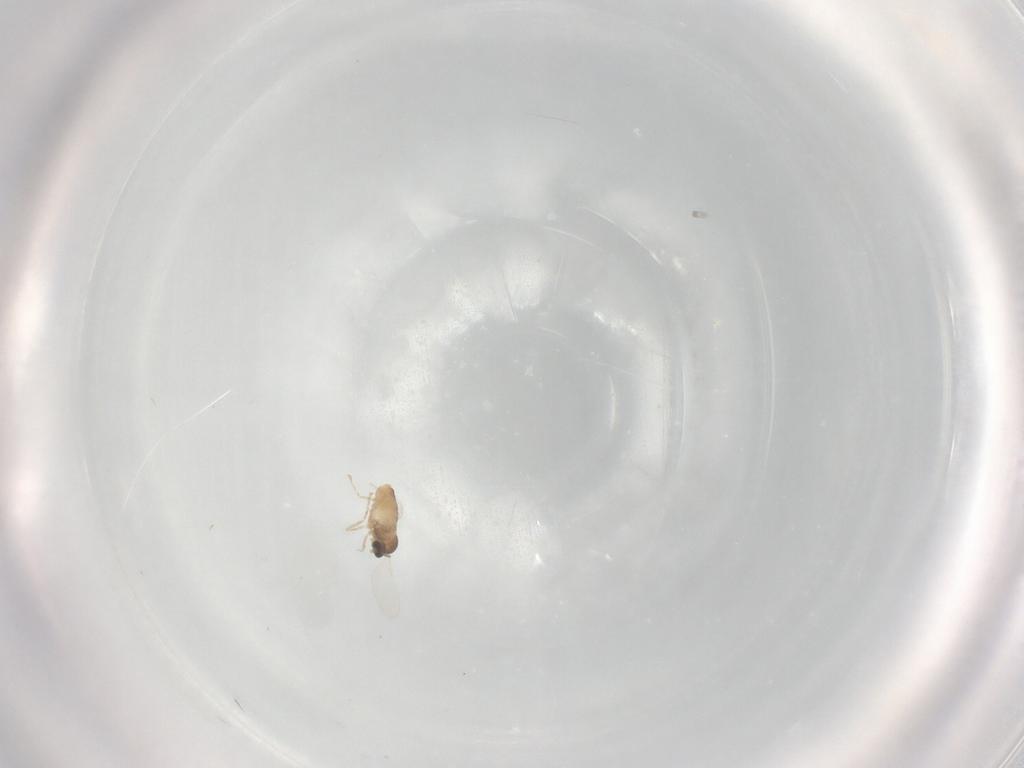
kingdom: Animalia
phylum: Arthropoda
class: Insecta
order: Diptera
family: Cecidomyiidae
